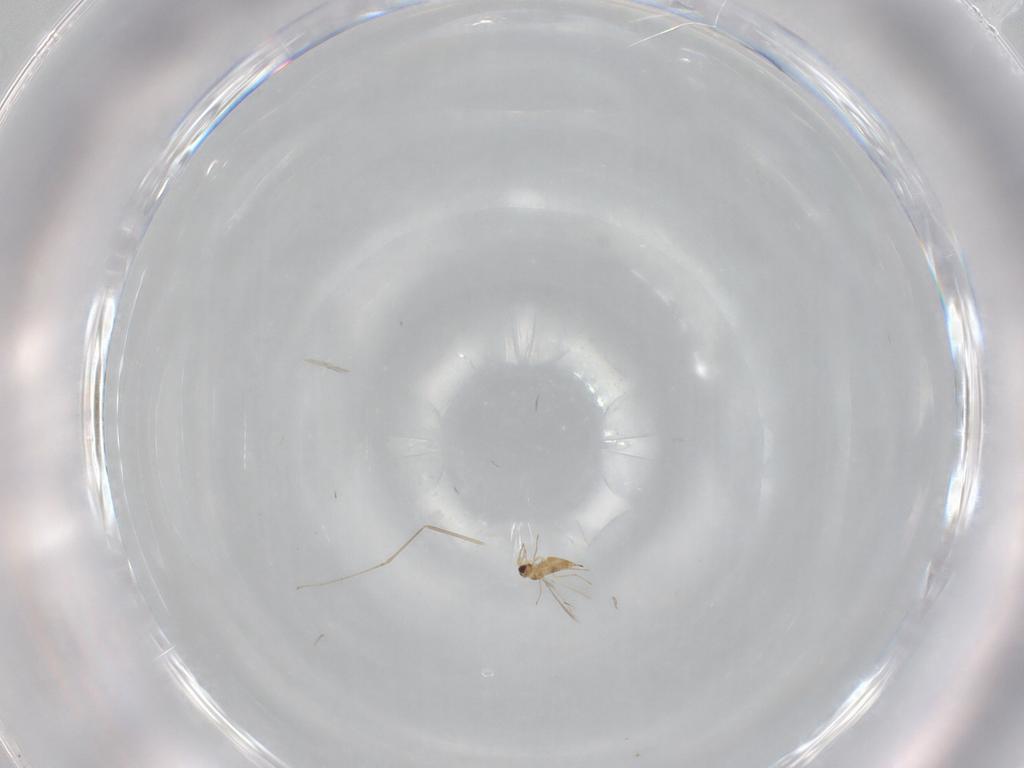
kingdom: Animalia
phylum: Arthropoda
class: Insecta
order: Hymenoptera
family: Mymaridae
